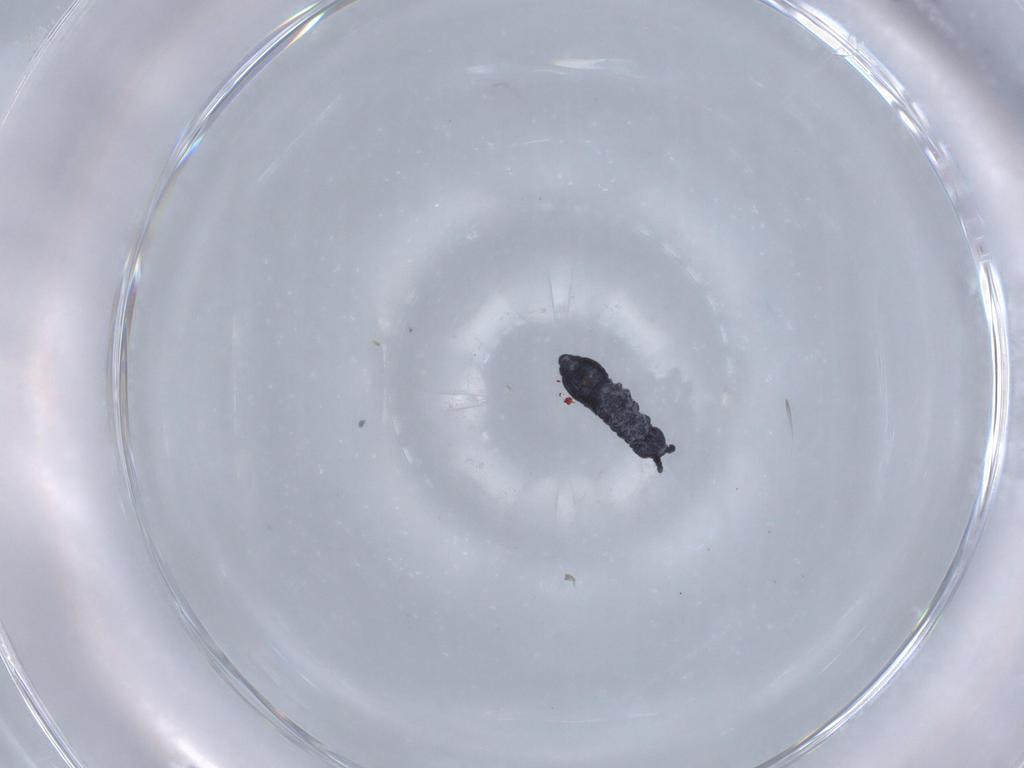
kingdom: Animalia
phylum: Arthropoda
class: Collembola
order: Poduromorpha
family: Hypogastruridae
